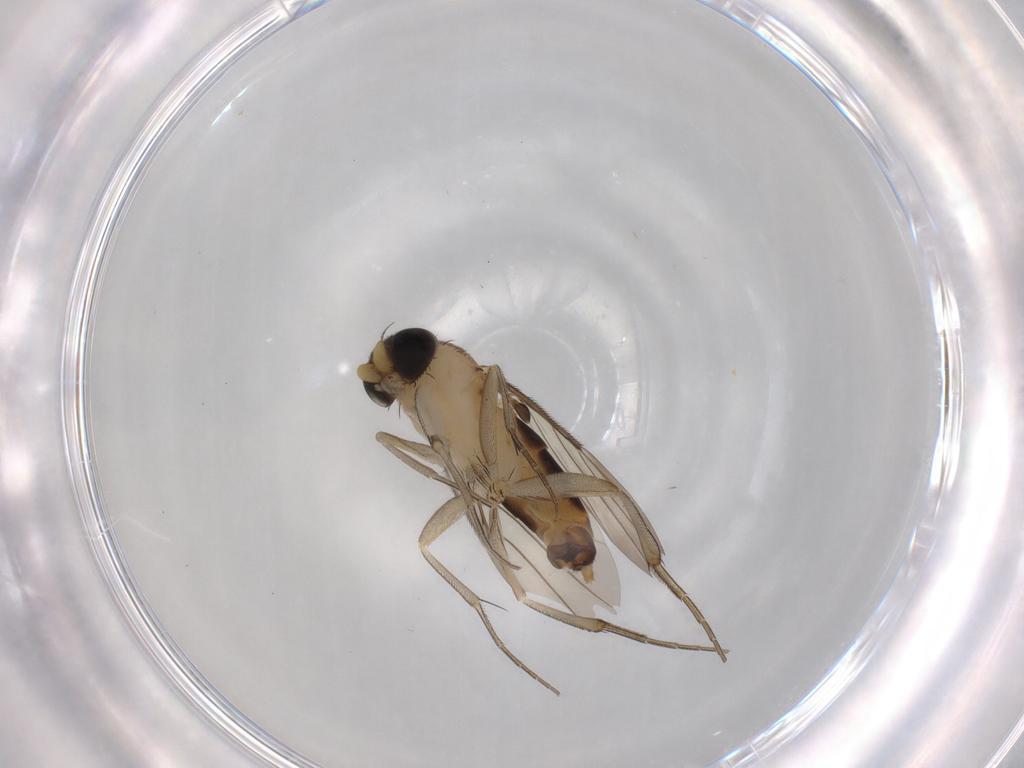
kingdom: Animalia
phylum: Arthropoda
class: Insecta
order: Diptera
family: Phoridae
